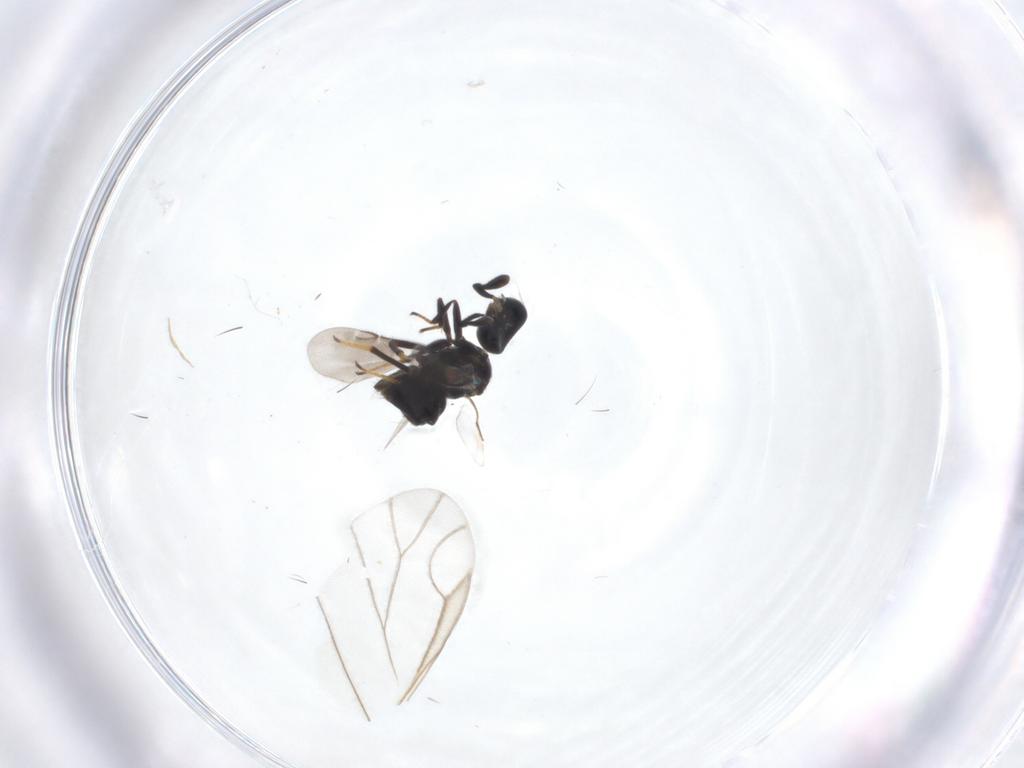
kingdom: Animalia
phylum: Arthropoda
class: Insecta
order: Hymenoptera
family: Encyrtidae
